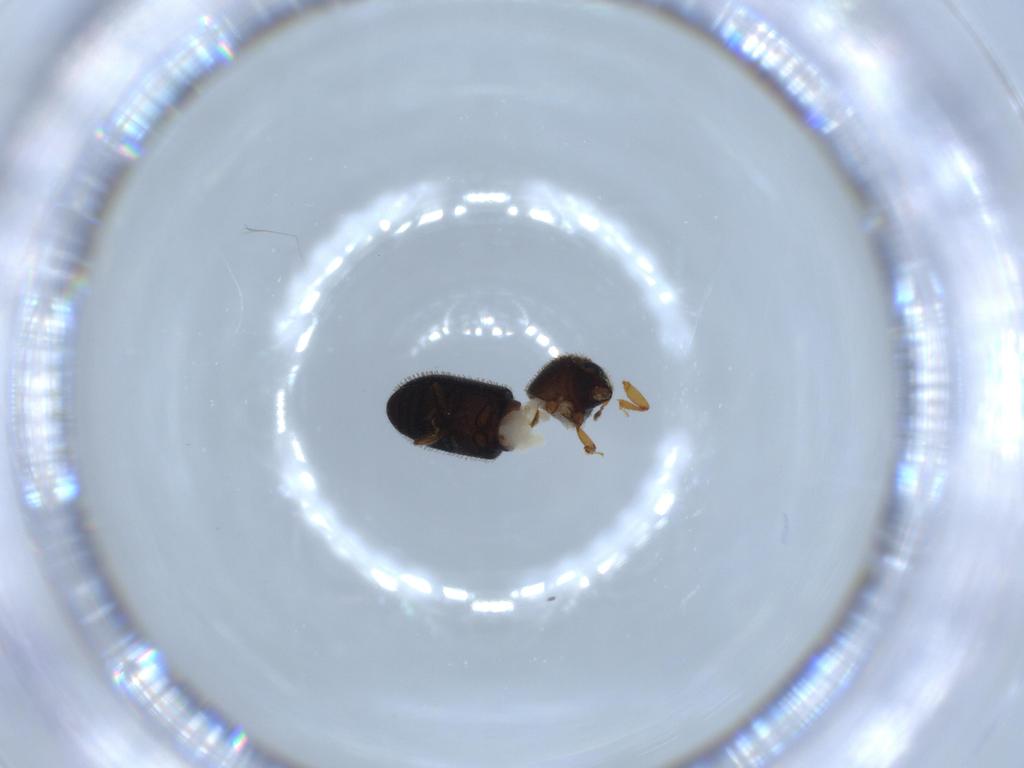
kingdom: Animalia
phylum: Arthropoda
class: Insecta
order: Coleoptera
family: Curculionidae
